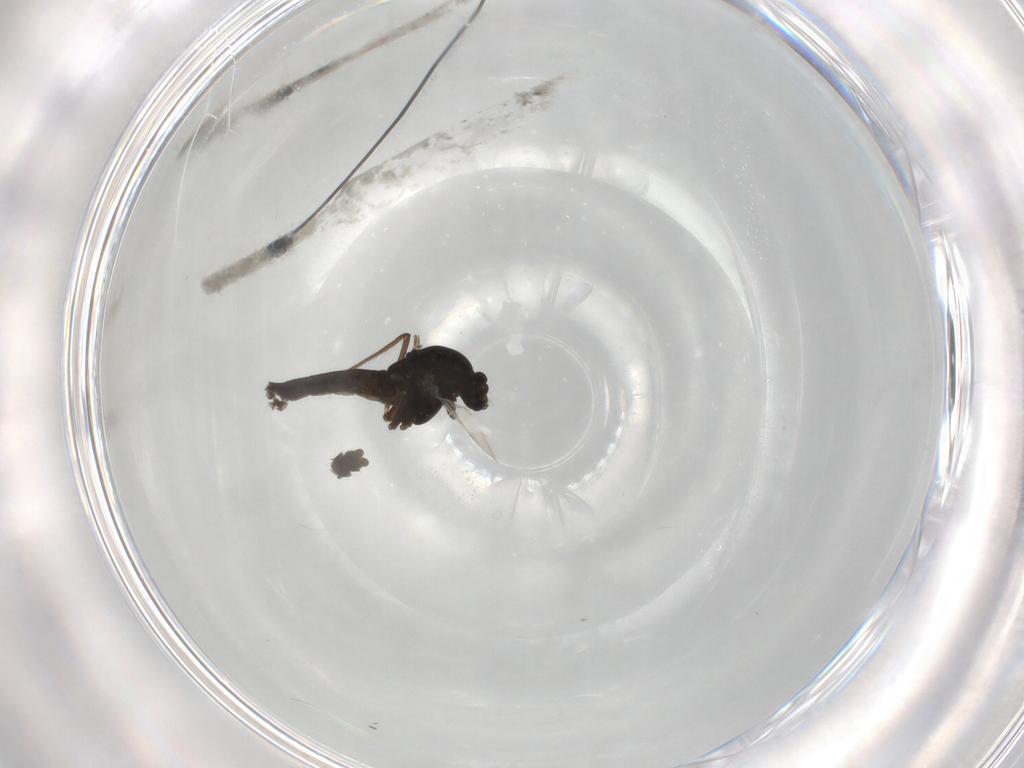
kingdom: Animalia
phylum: Arthropoda
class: Insecta
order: Diptera
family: Chironomidae
